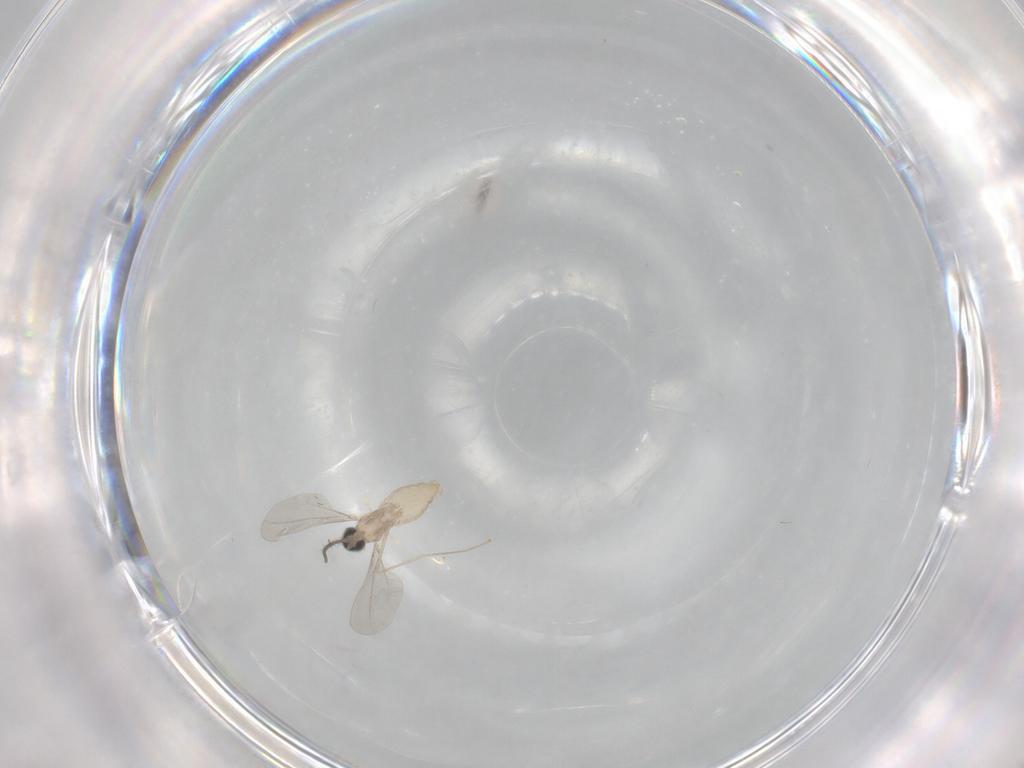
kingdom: Animalia
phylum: Arthropoda
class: Insecta
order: Diptera
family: Cecidomyiidae
